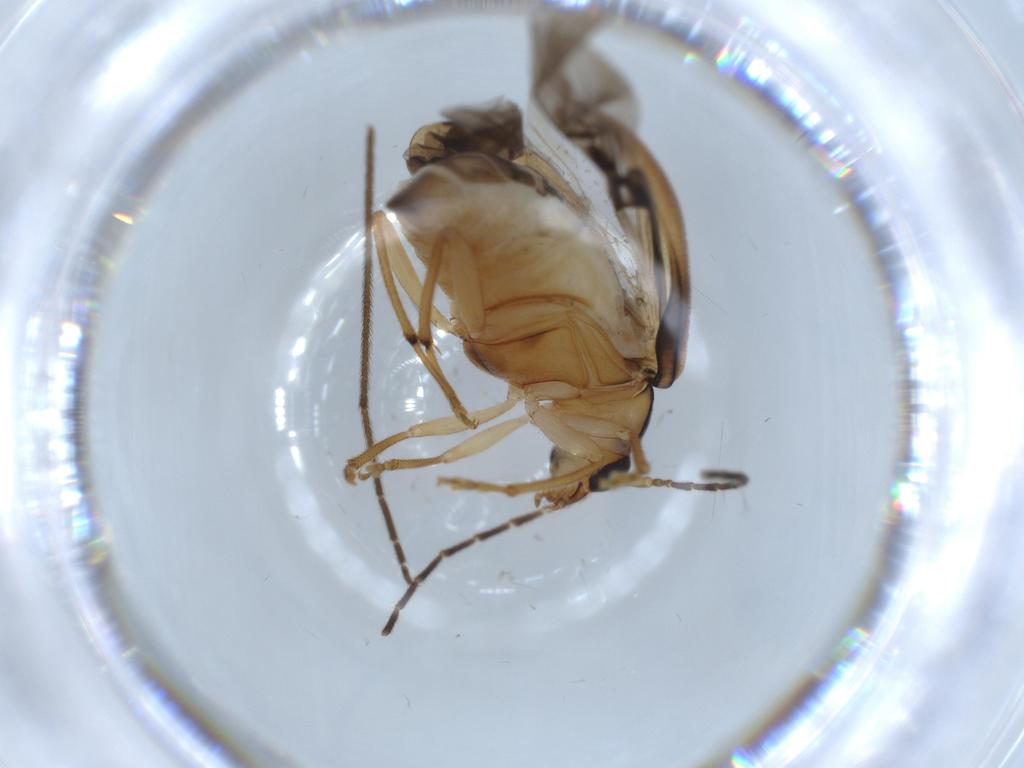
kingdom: Animalia
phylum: Arthropoda
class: Insecta
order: Coleoptera
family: Chrysomelidae
